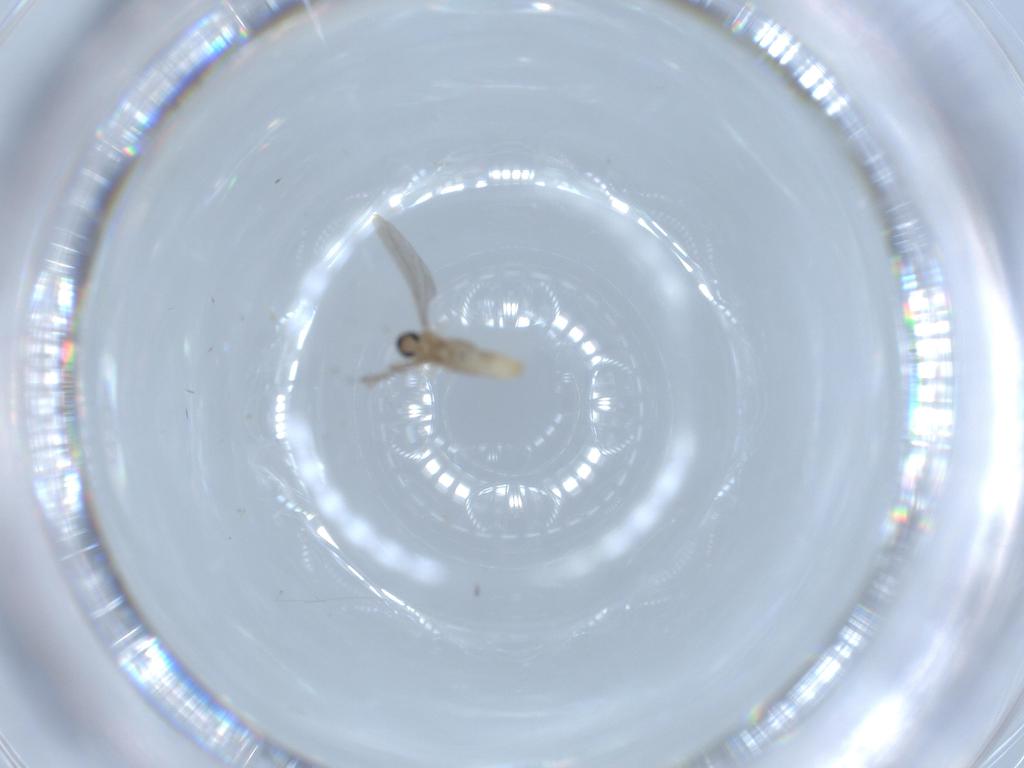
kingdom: Animalia
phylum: Arthropoda
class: Insecta
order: Diptera
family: Cecidomyiidae
